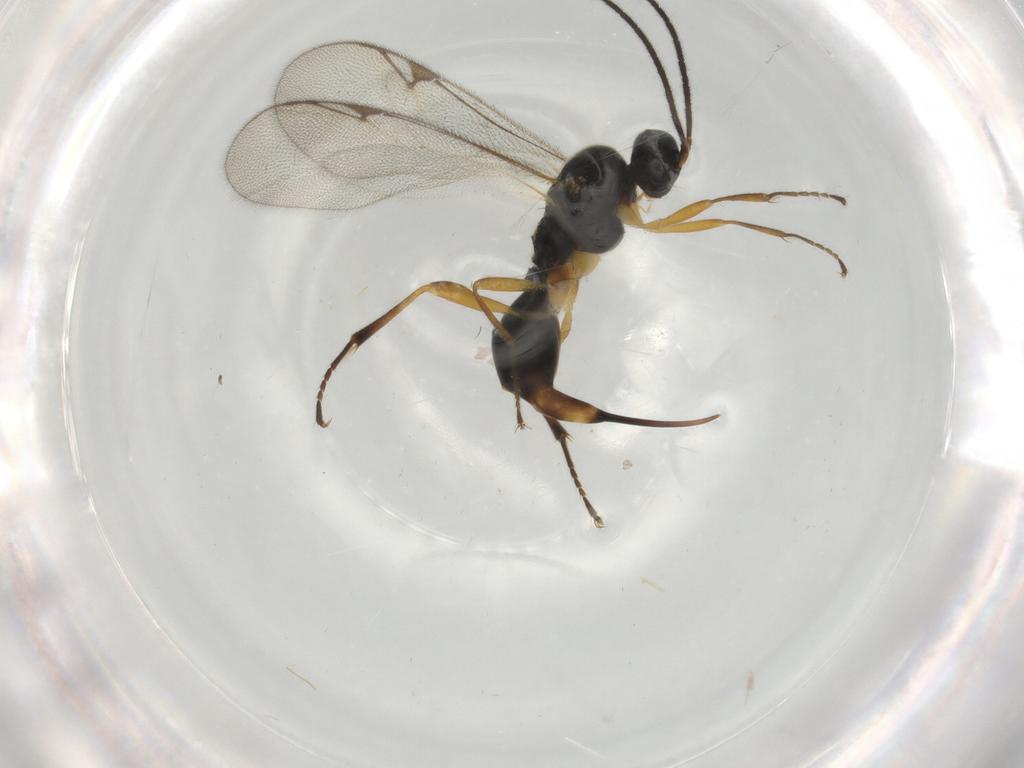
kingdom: Animalia
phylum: Arthropoda
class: Insecta
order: Hymenoptera
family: Proctotrupidae
